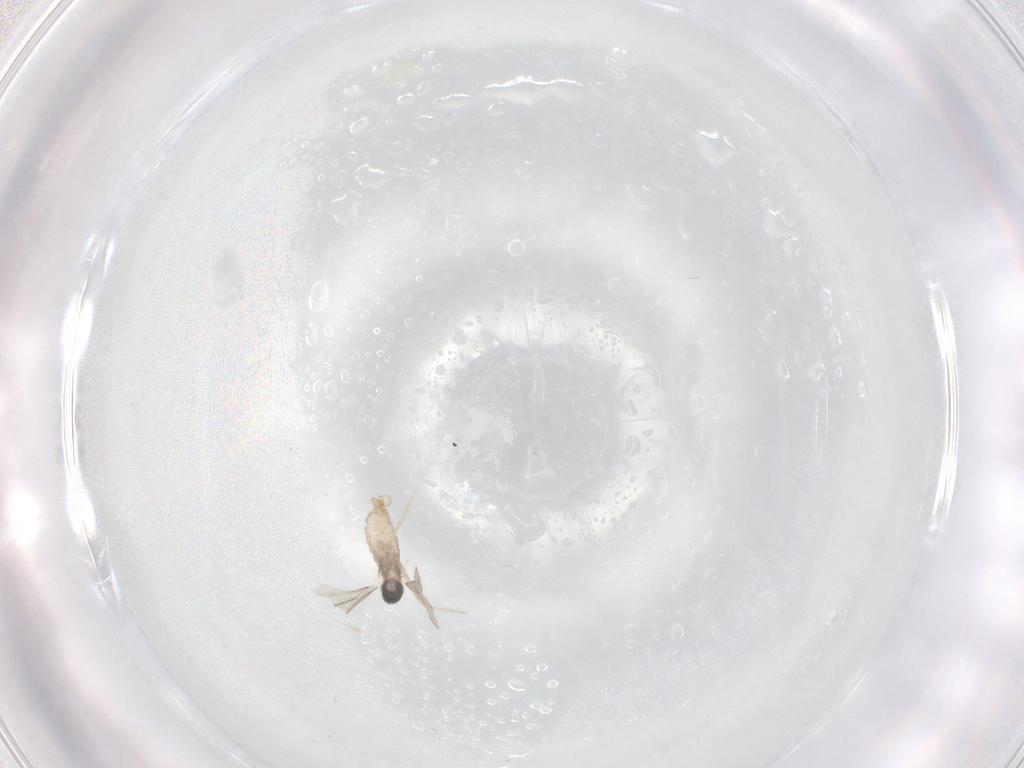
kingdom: Animalia
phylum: Arthropoda
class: Insecta
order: Diptera
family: Cecidomyiidae
